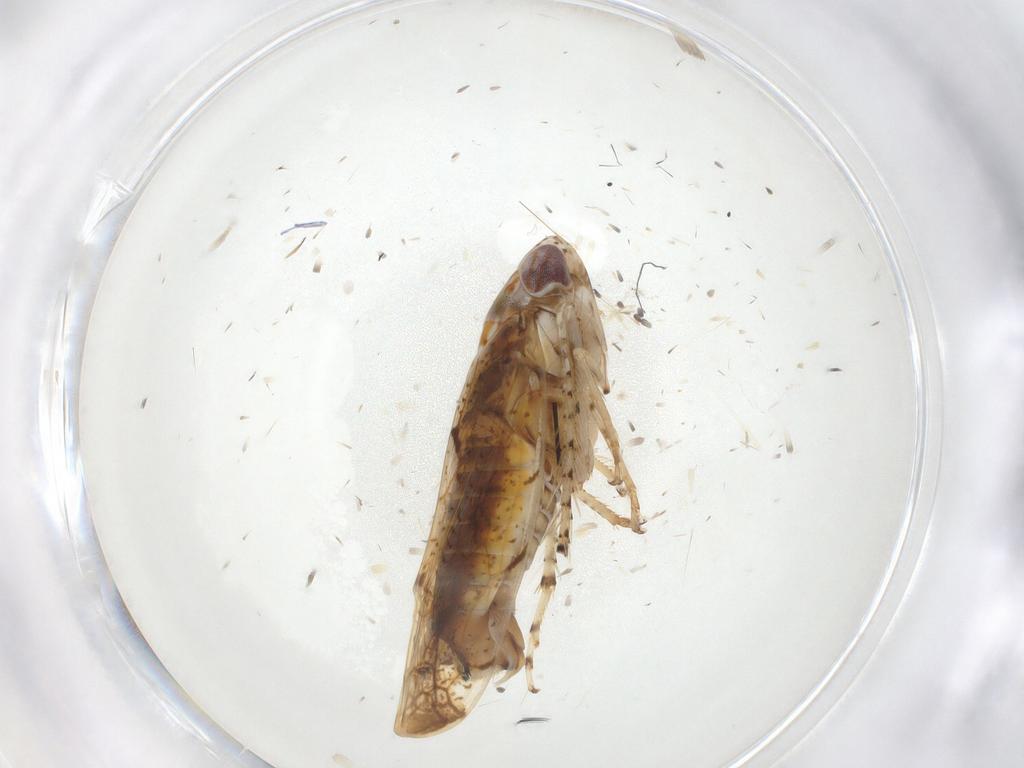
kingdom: Animalia
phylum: Arthropoda
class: Insecta
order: Hemiptera
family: Cicadellidae
